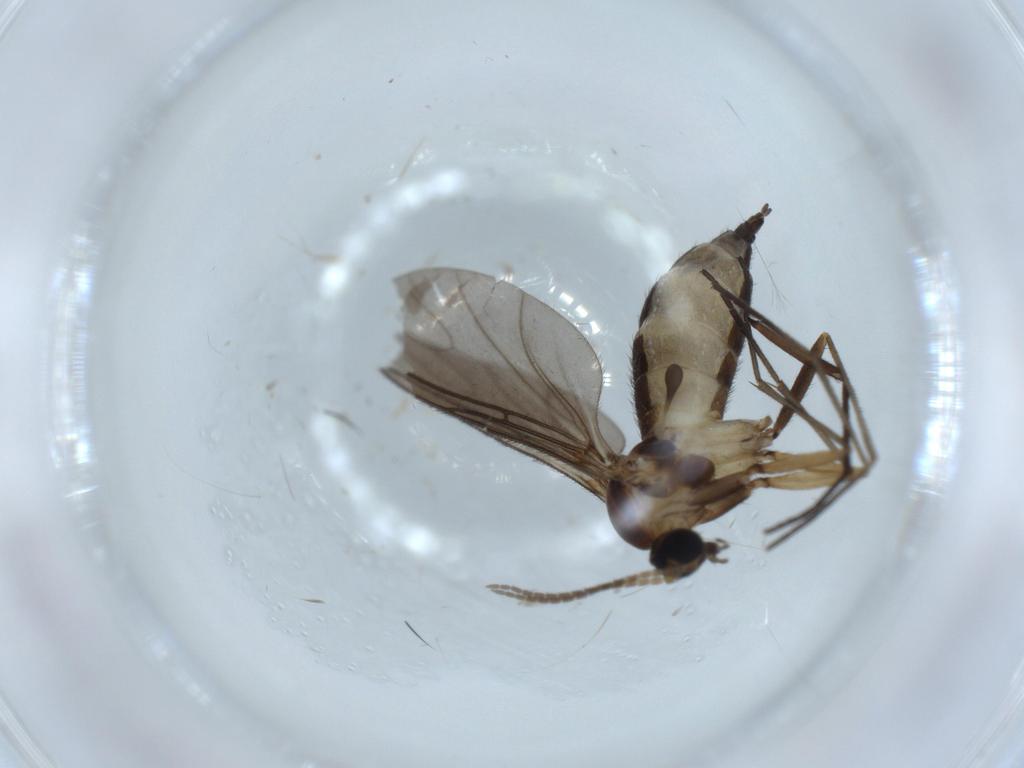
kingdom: Animalia
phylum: Arthropoda
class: Insecta
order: Diptera
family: Sciaridae
